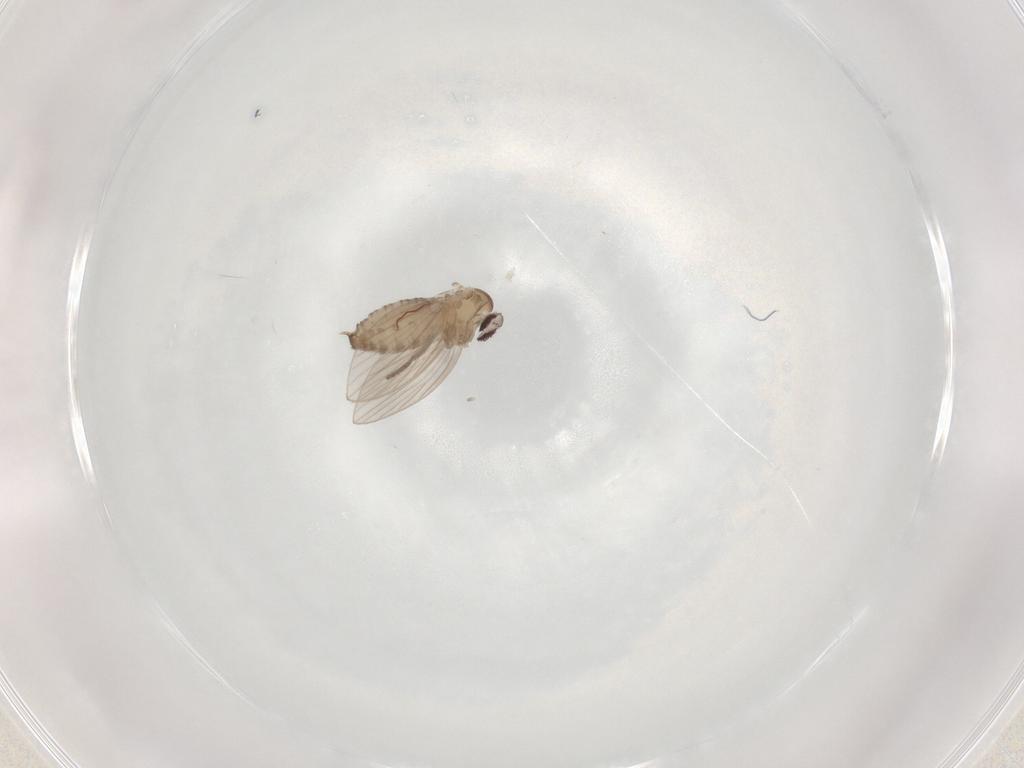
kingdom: Animalia
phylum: Arthropoda
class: Insecta
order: Diptera
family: Psychodidae
